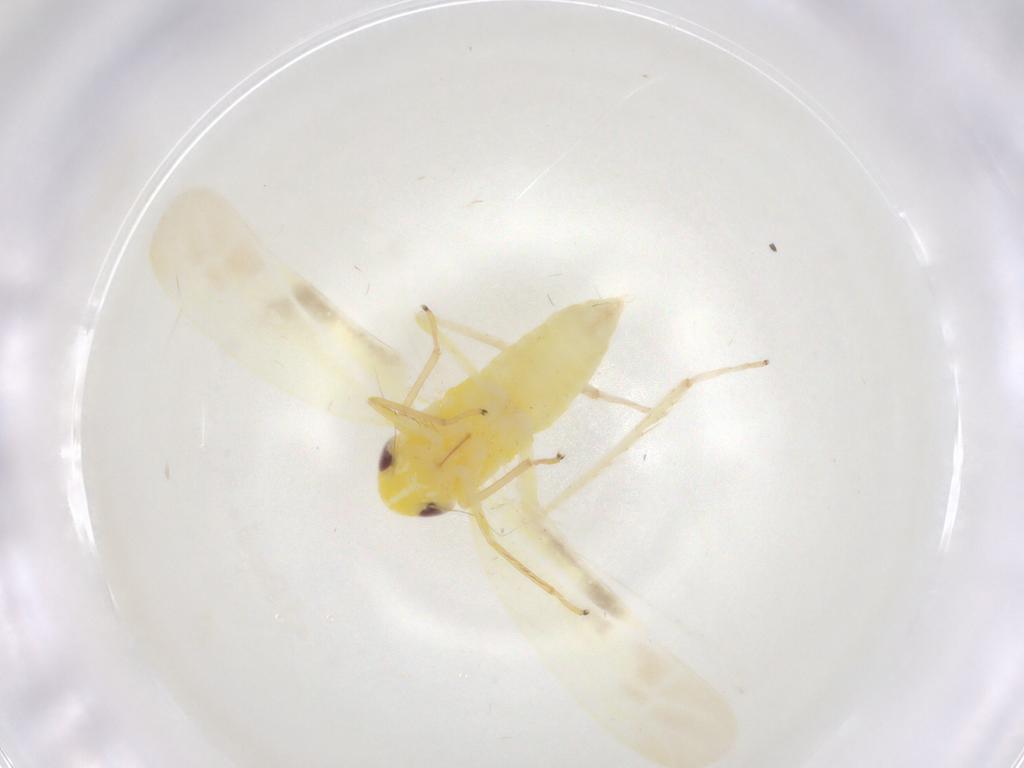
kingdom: Animalia
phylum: Arthropoda
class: Insecta
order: Hemiptera
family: Cicadellidae
